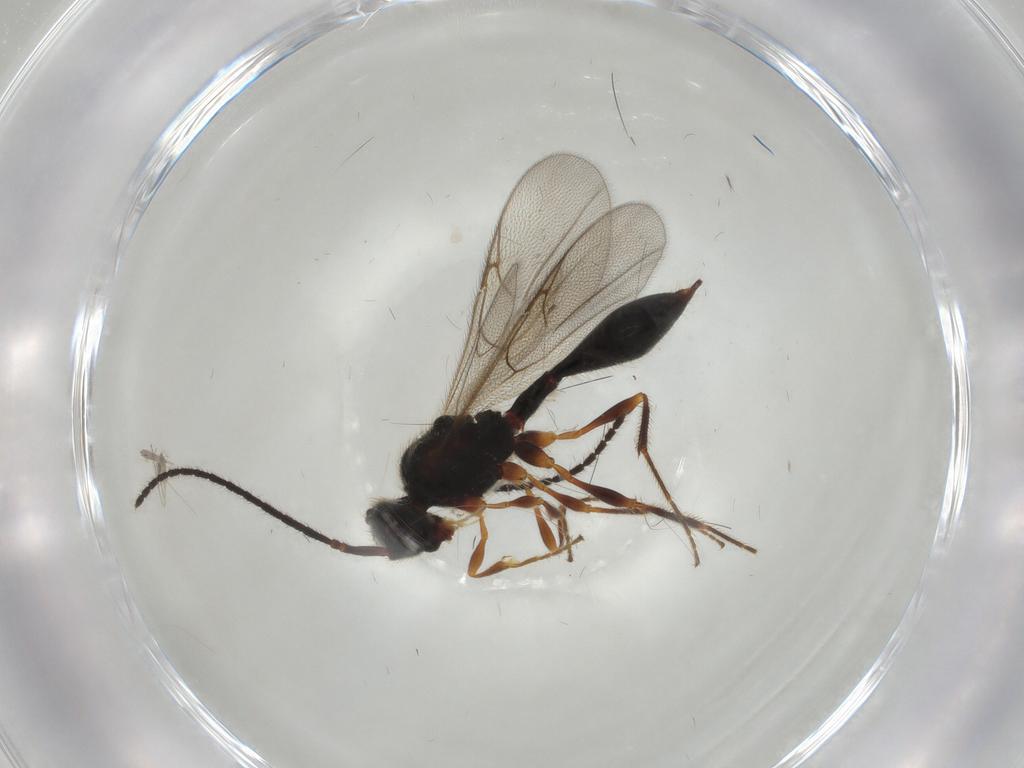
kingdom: Animalia
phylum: Arthropoda
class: Insecta
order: Hymenoptera
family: Diapriidae
